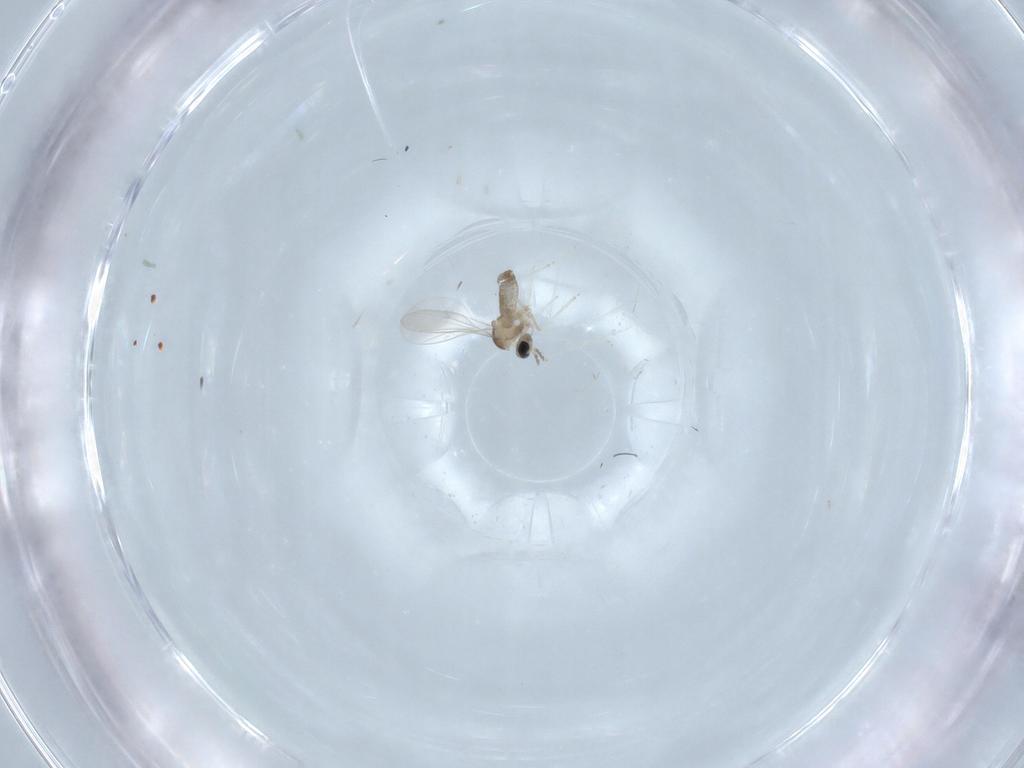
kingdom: Animalia
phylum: Arthropoda
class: Insecta
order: Diptera
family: Cecidomyiidae
